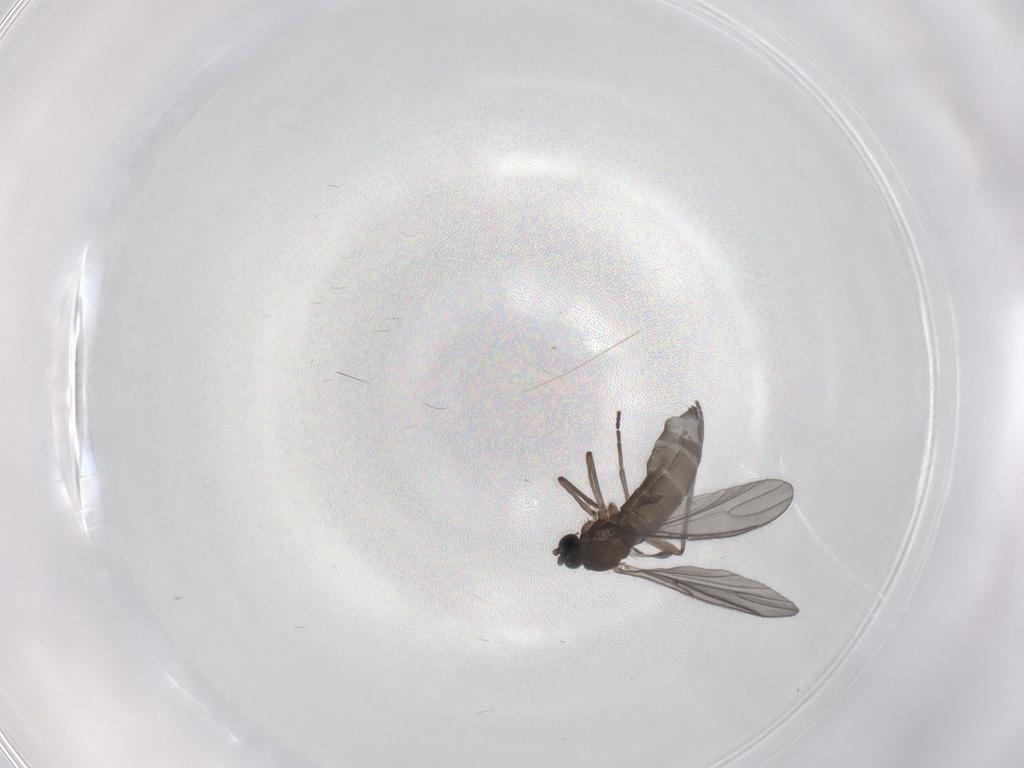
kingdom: Animalia
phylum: Arthropoda
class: Insecta
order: Diptera
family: Sciaridae
